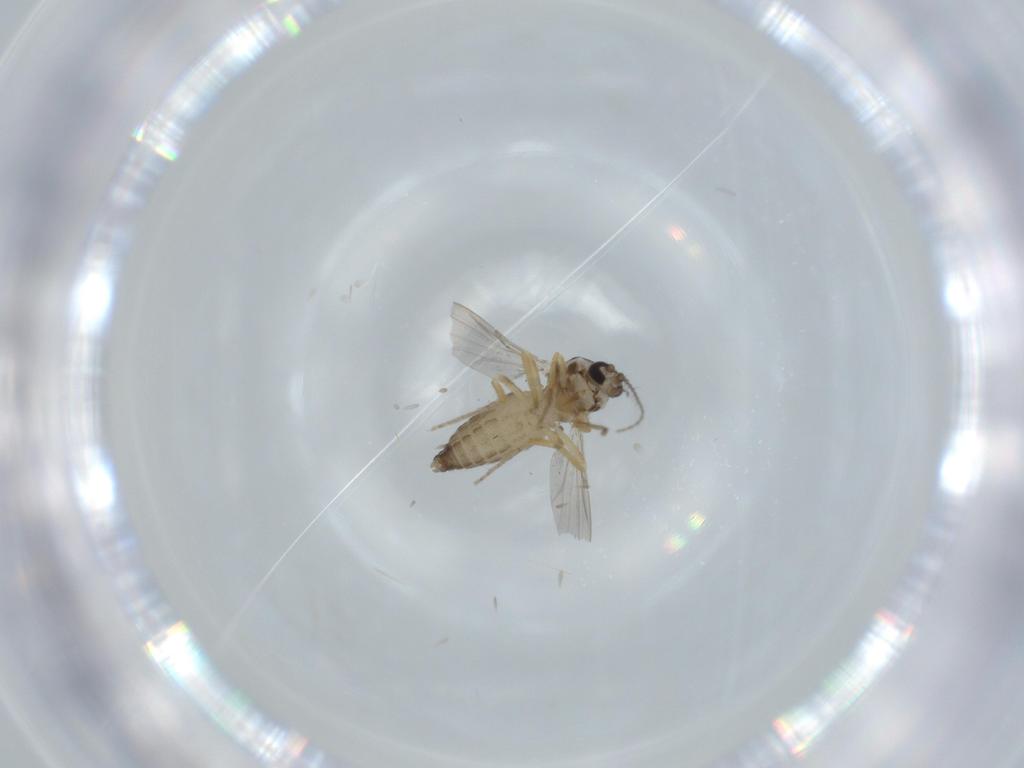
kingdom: Animalia
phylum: Arthropoda
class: Insecta
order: Diptera
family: Ceratopogonidae
